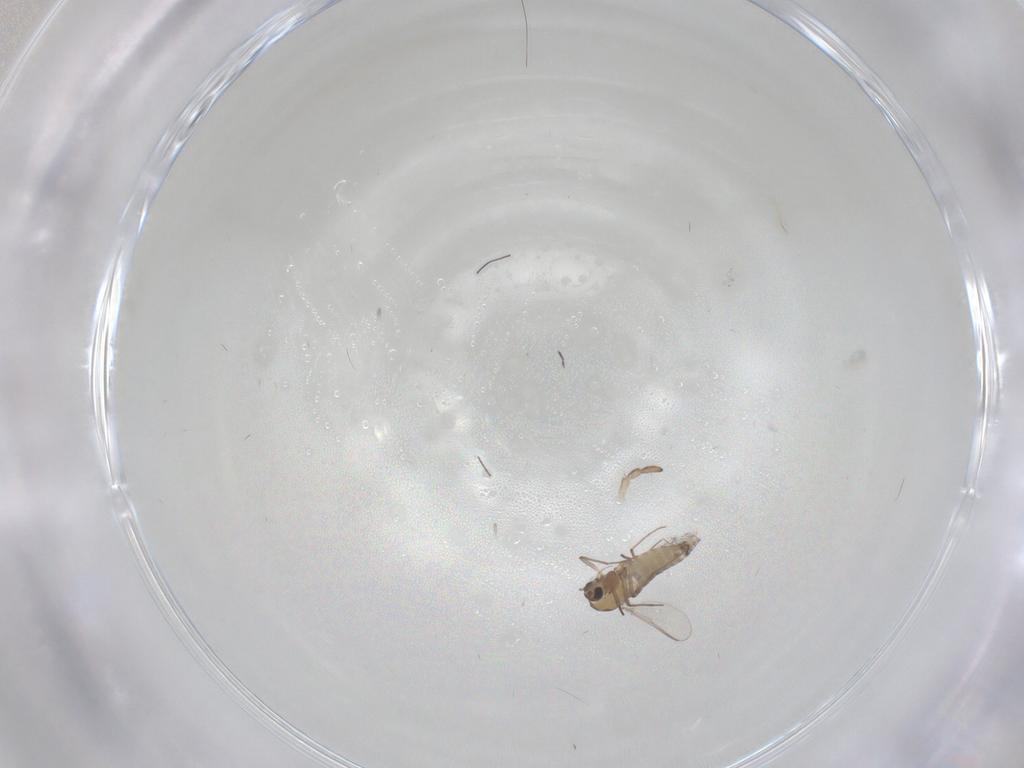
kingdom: Animalia
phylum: Arthropoda
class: Insecta
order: Diptera
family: Chironomidae
